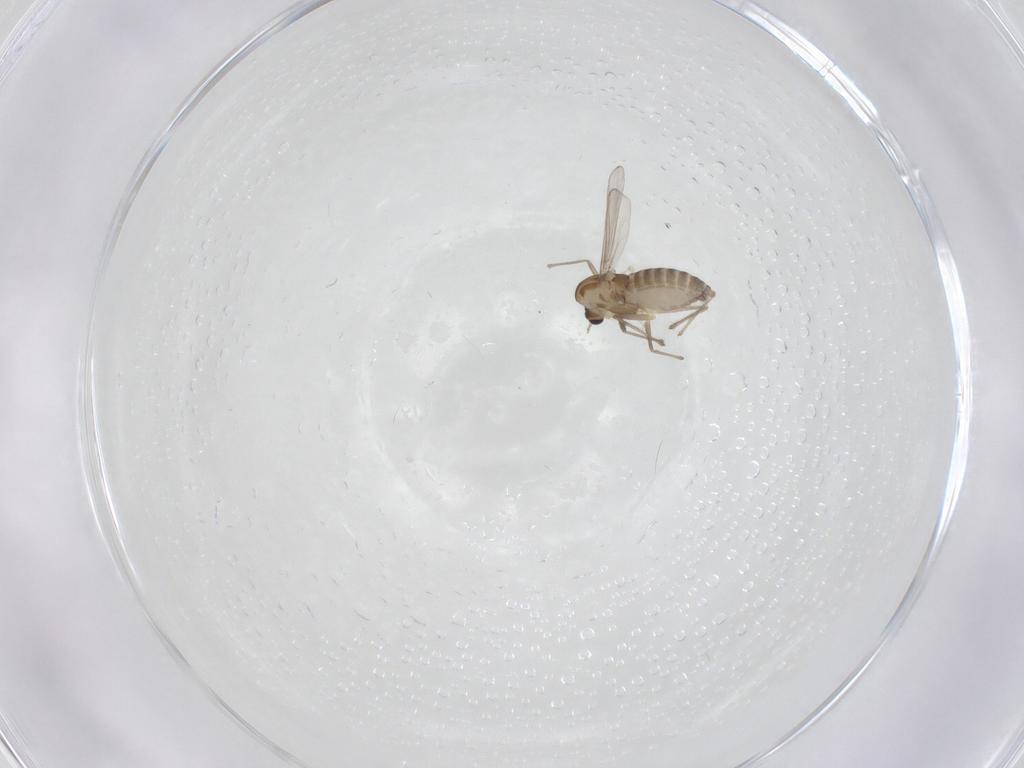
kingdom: Animalia
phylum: Arthropoda
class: Insecta
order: Diptera
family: Chironomidae
